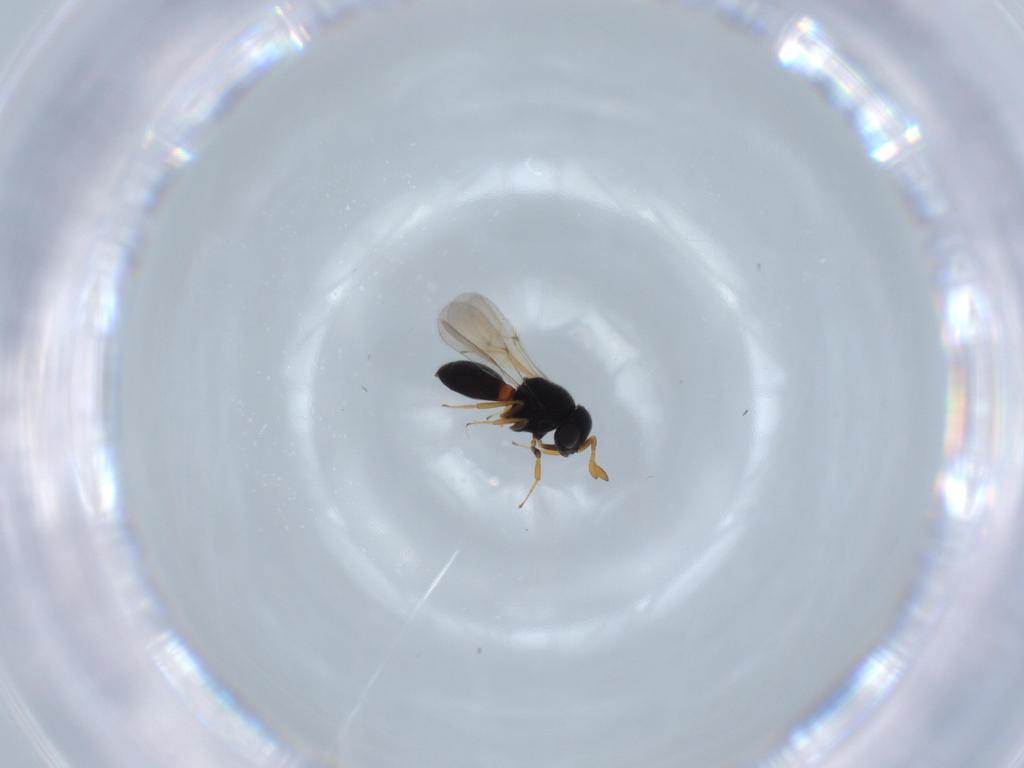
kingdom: Animalia
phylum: Arthropoda
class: Insecta
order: Hymenoptera
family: Scelionidae
